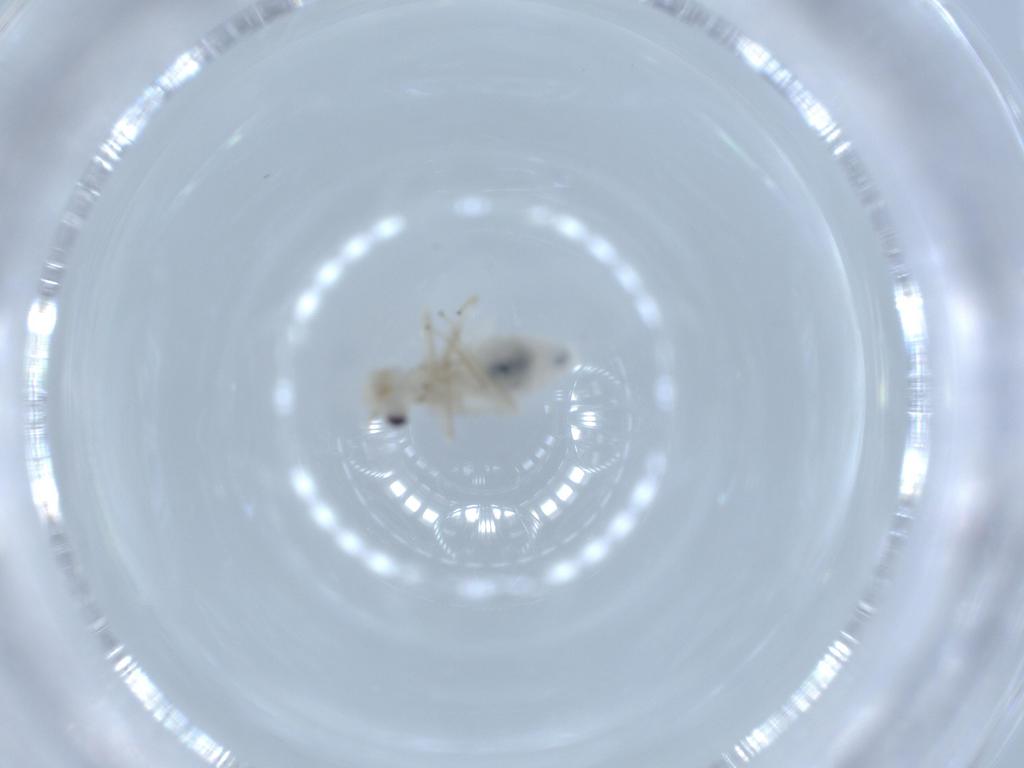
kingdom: Animalia
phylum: Arthropoda
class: Insecta
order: Psocodea
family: Caeciliusidae
